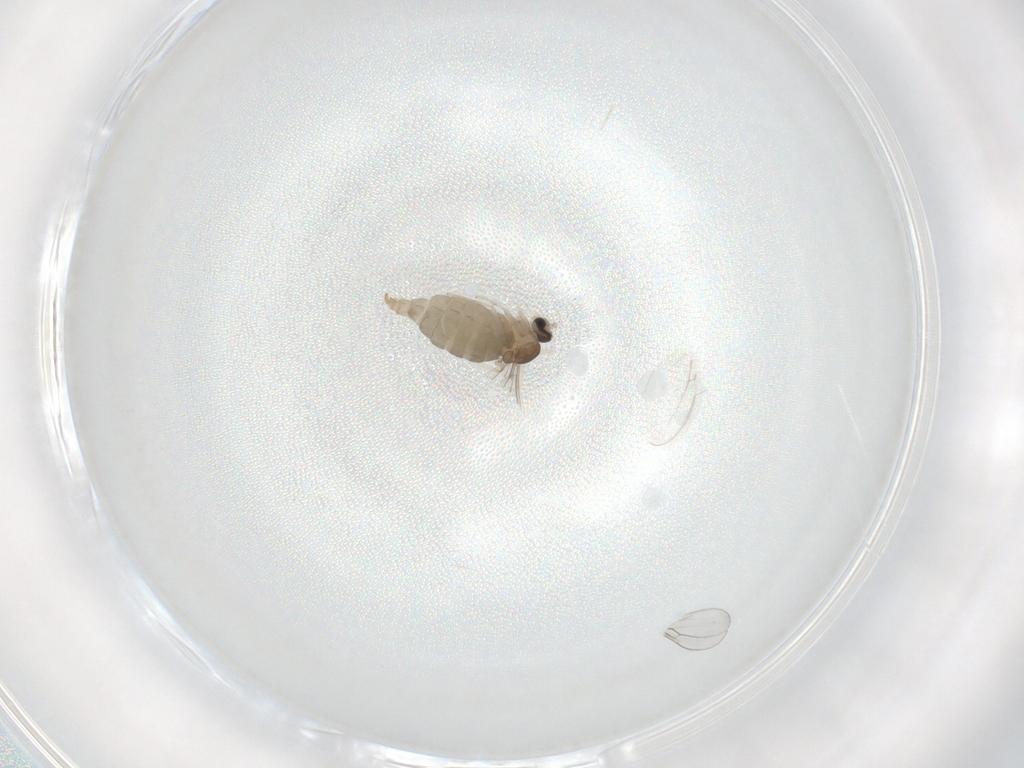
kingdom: Animalia
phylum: Arthropoda
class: Insecta
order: Diptera
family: Cecidomyiidae
